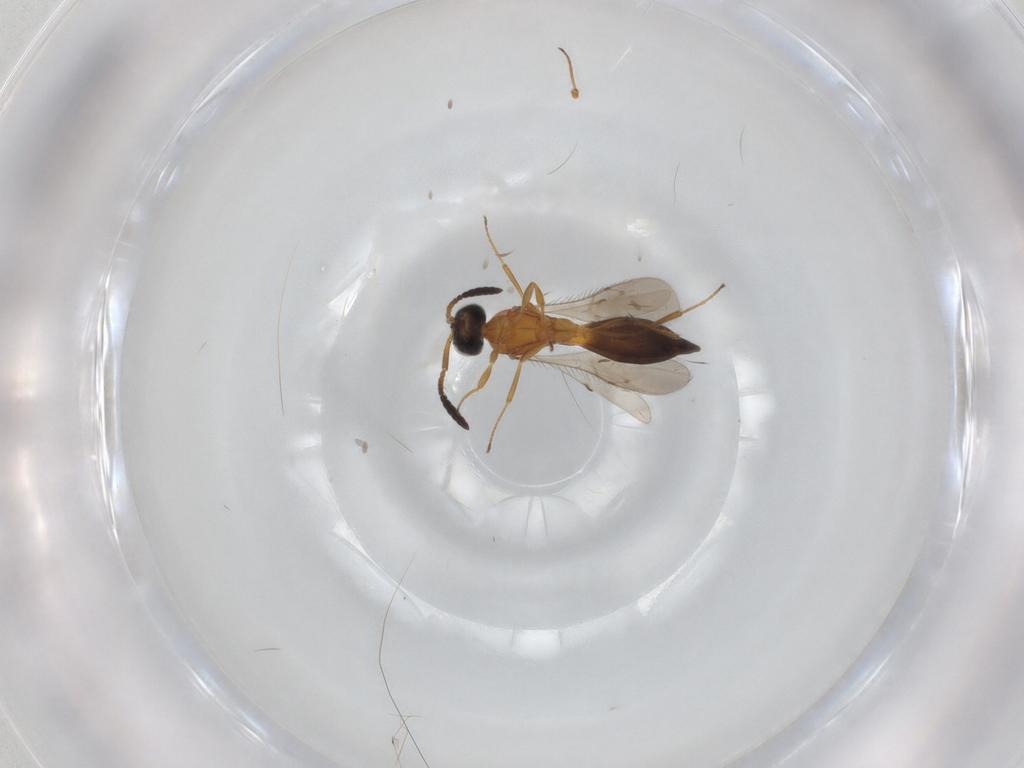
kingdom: Animalia
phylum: Arthropoda
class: Insecta
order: Hymenoptera
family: Scelionidae
